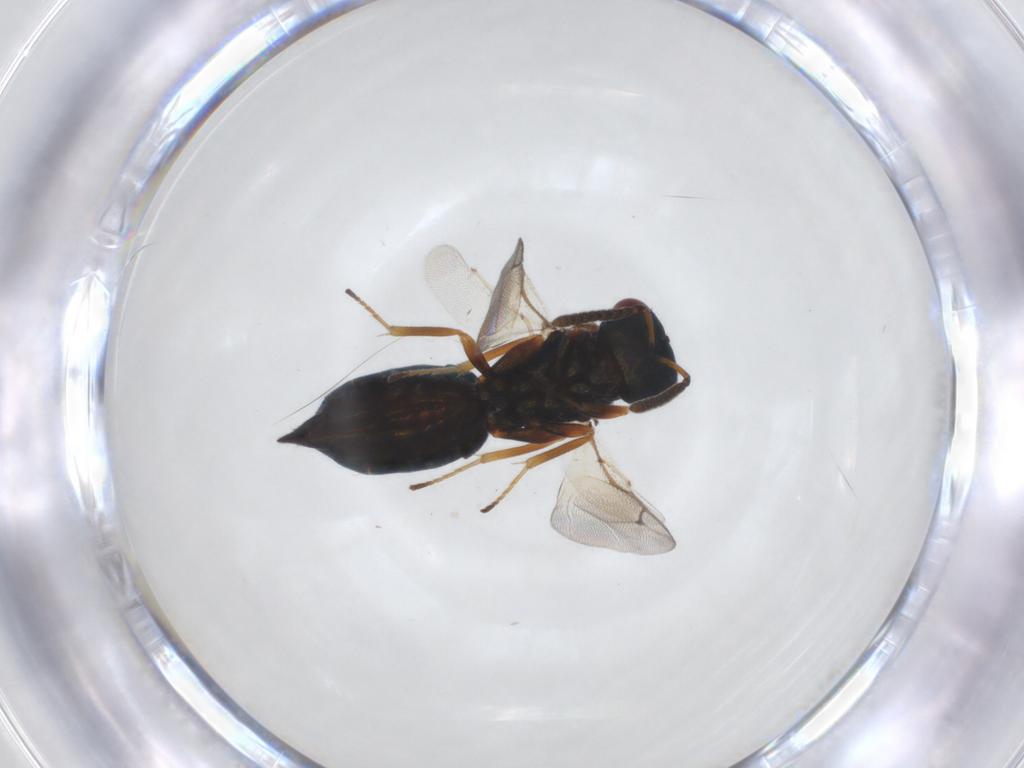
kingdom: Animalia
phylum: Arthropoda
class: Insecta
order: Hymenoptera
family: Pteromalidae
